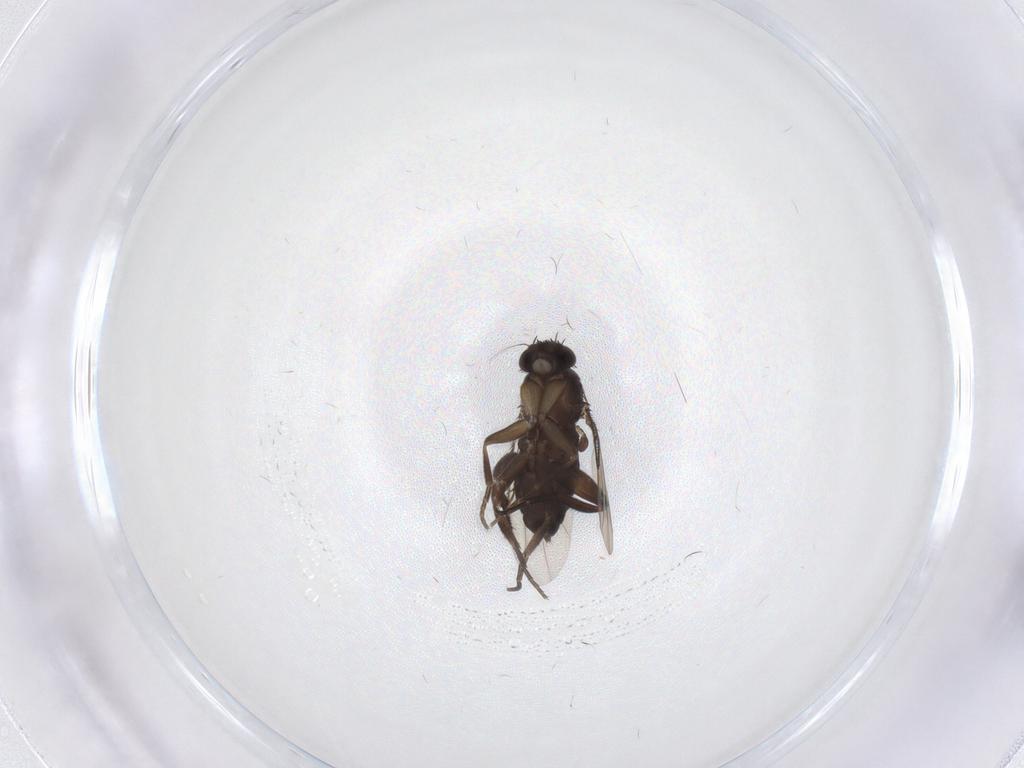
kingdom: Animalia
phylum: Arthropoda
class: Insecta
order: Diptera
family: Phoridae
